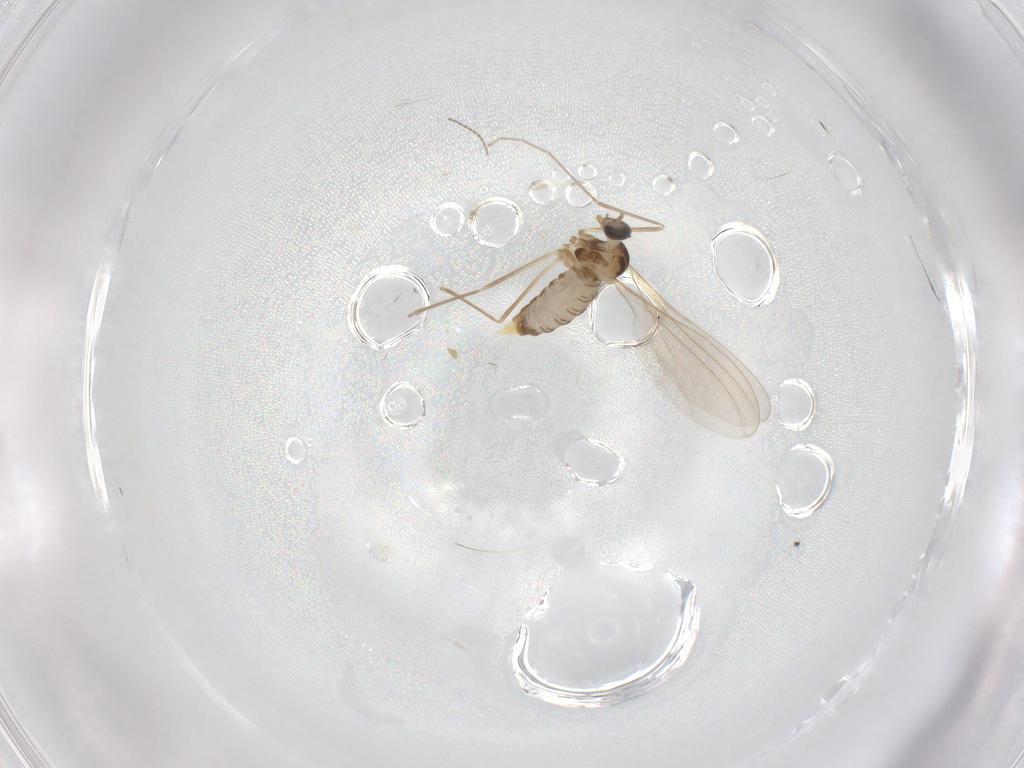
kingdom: Animalia
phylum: Arthropoda
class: Insecta
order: Diptera
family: Cecidomyiidae
